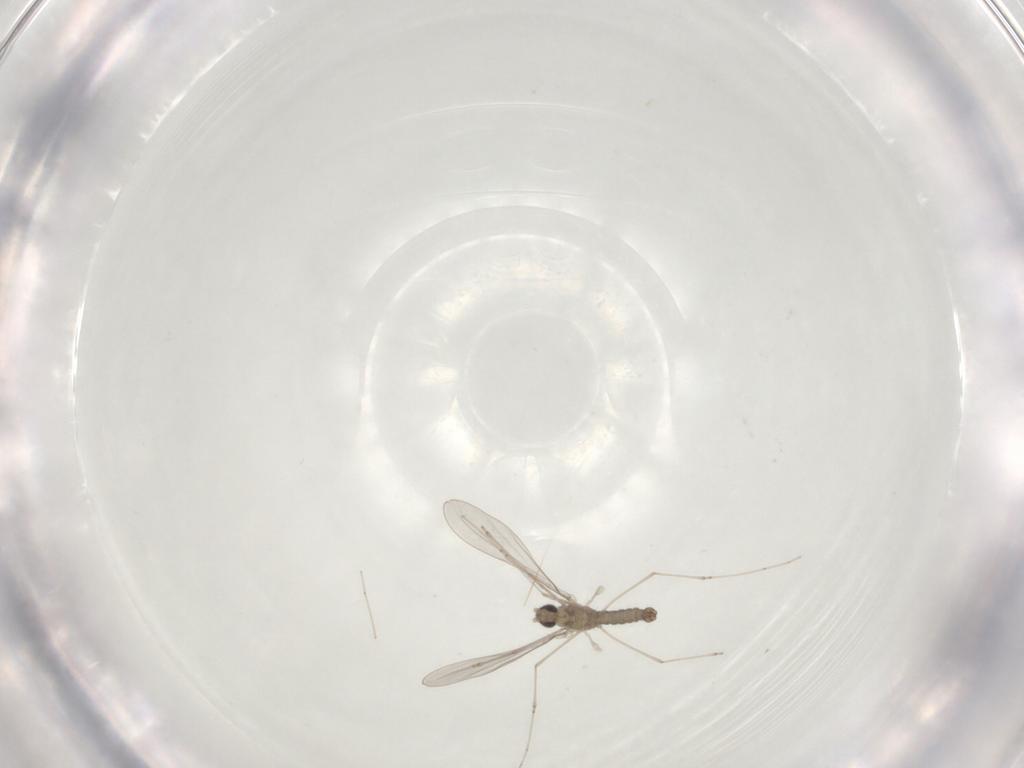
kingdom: Animalia
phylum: Arthropoda
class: Insecta
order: Diptera
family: Cecidomyiidae
